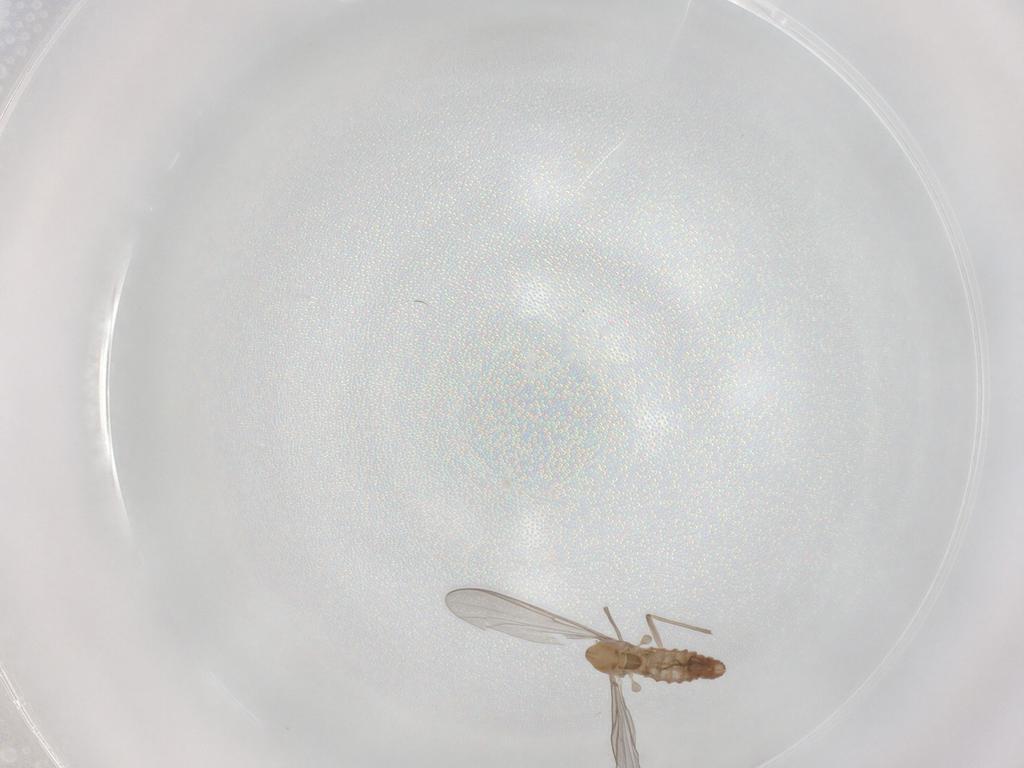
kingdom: Animalia
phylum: Arthropoda
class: Insecta
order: Diptera
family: Chironomidae
